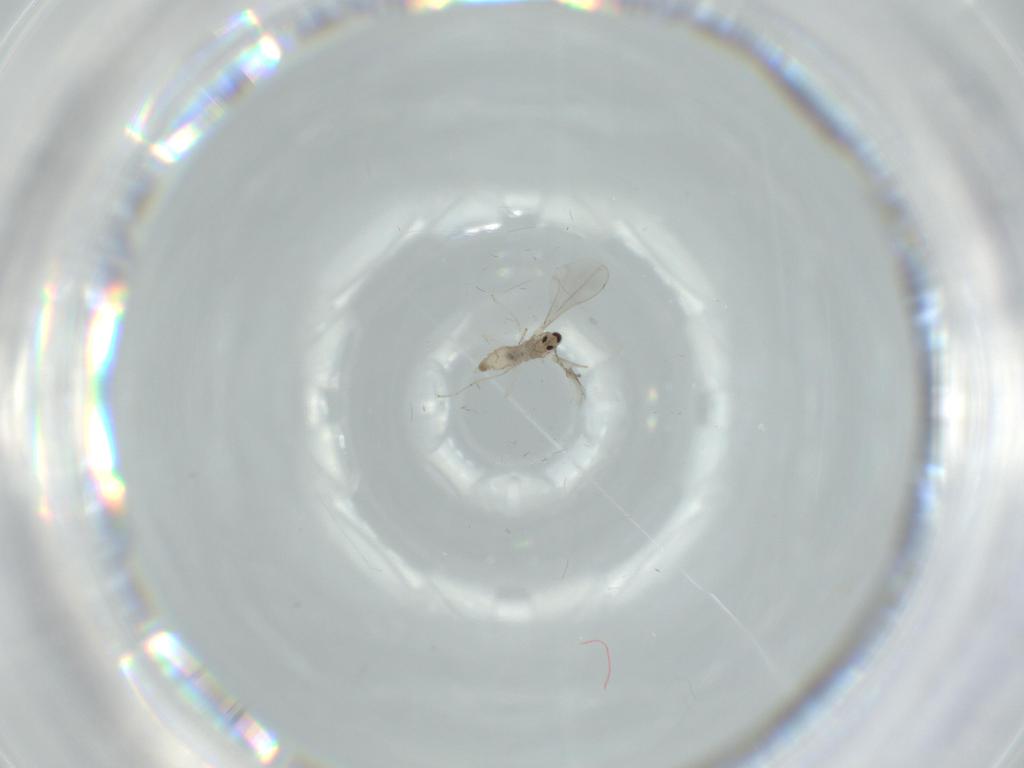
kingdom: Animalia
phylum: Arthropoda
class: Insecta
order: Diptera
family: Cecidomyiidae
